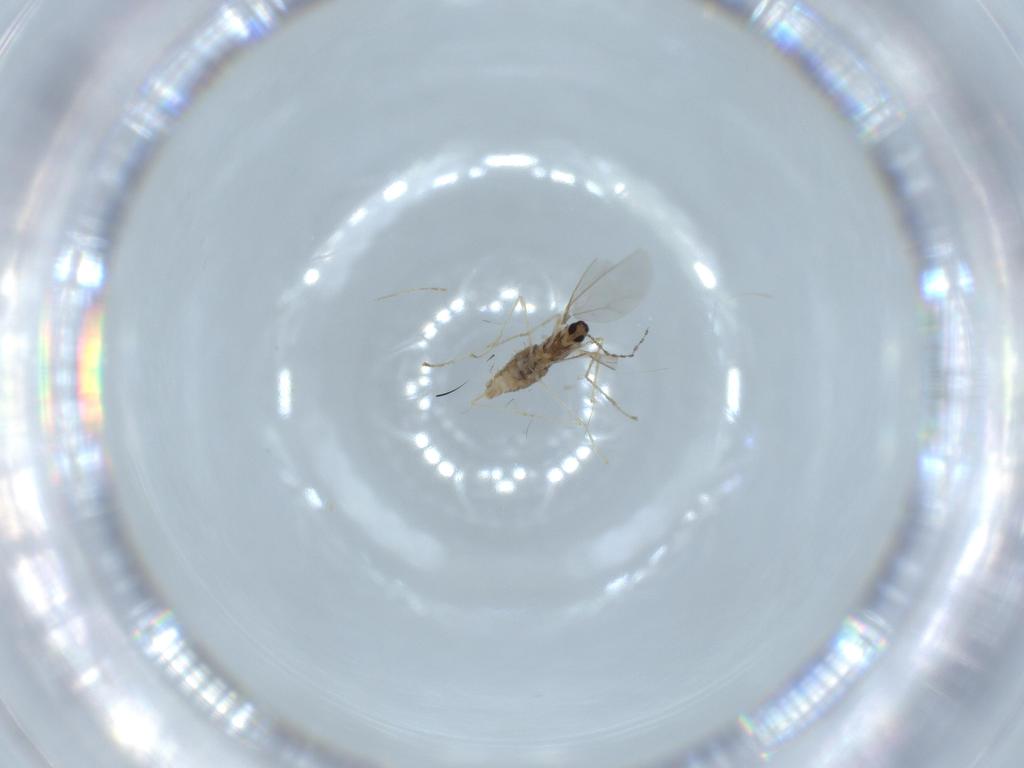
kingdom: Animalia
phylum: Arthropoda
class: Insecta
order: Diptera
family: Cecidomyiidae
